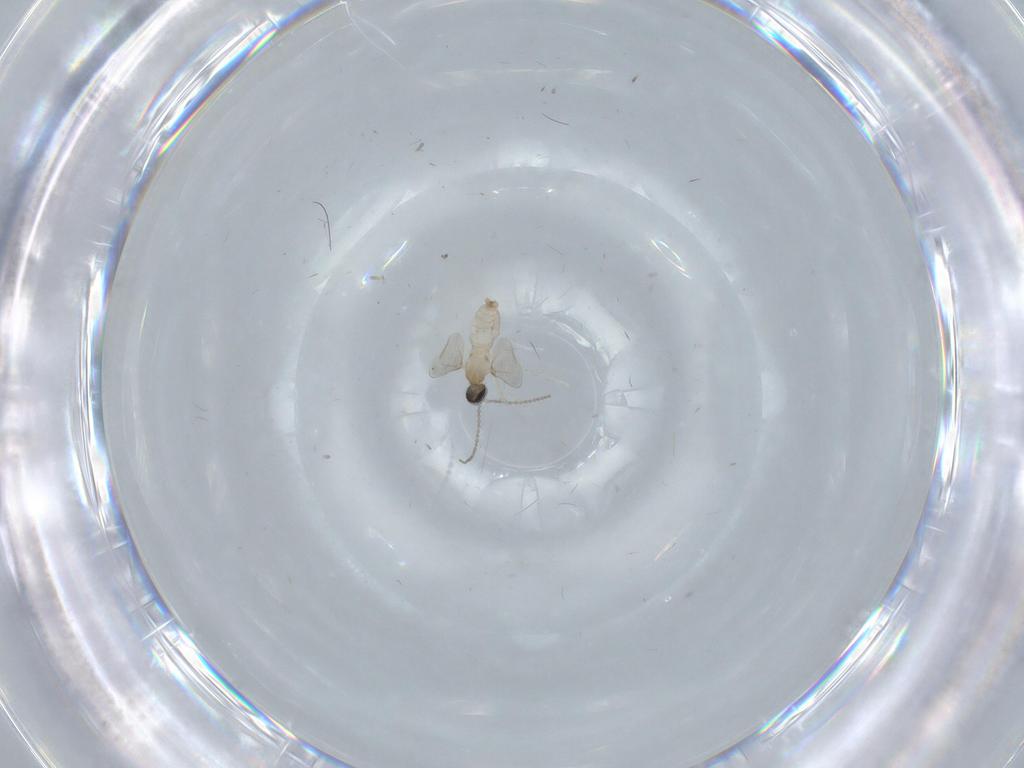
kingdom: Animalia
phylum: Arthropoda
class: Insecta
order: Diptera
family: Cecidomyiidae
